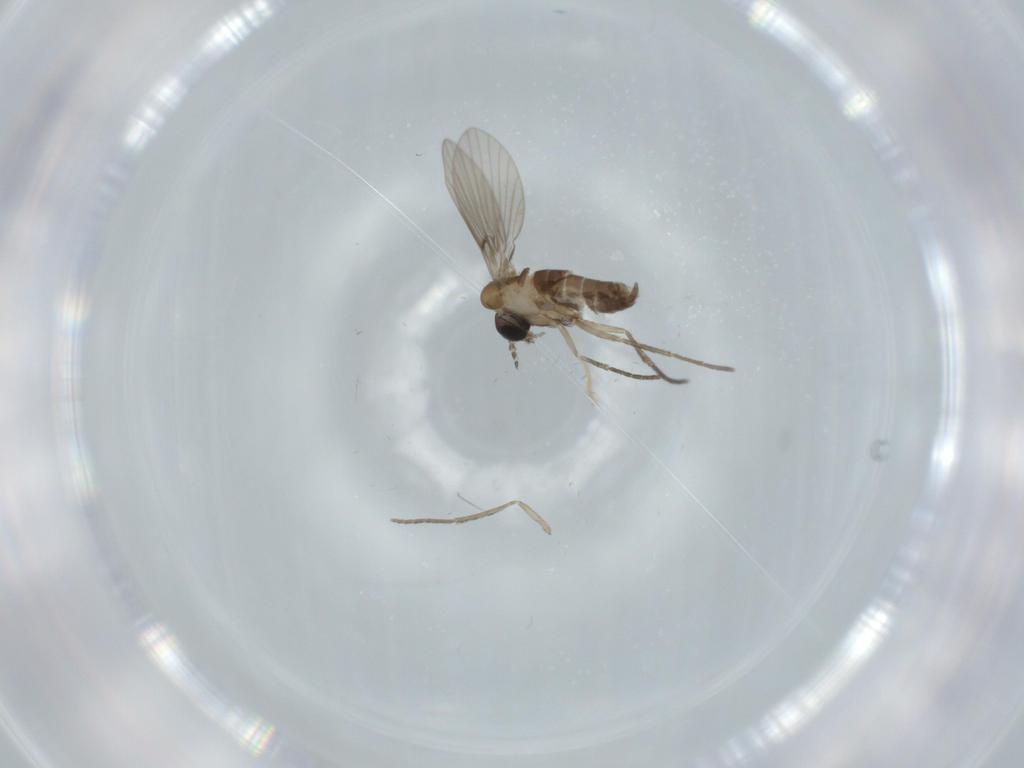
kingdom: Animalia
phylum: Arthropoda
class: Insecta
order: Diptera
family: Psychodidae
